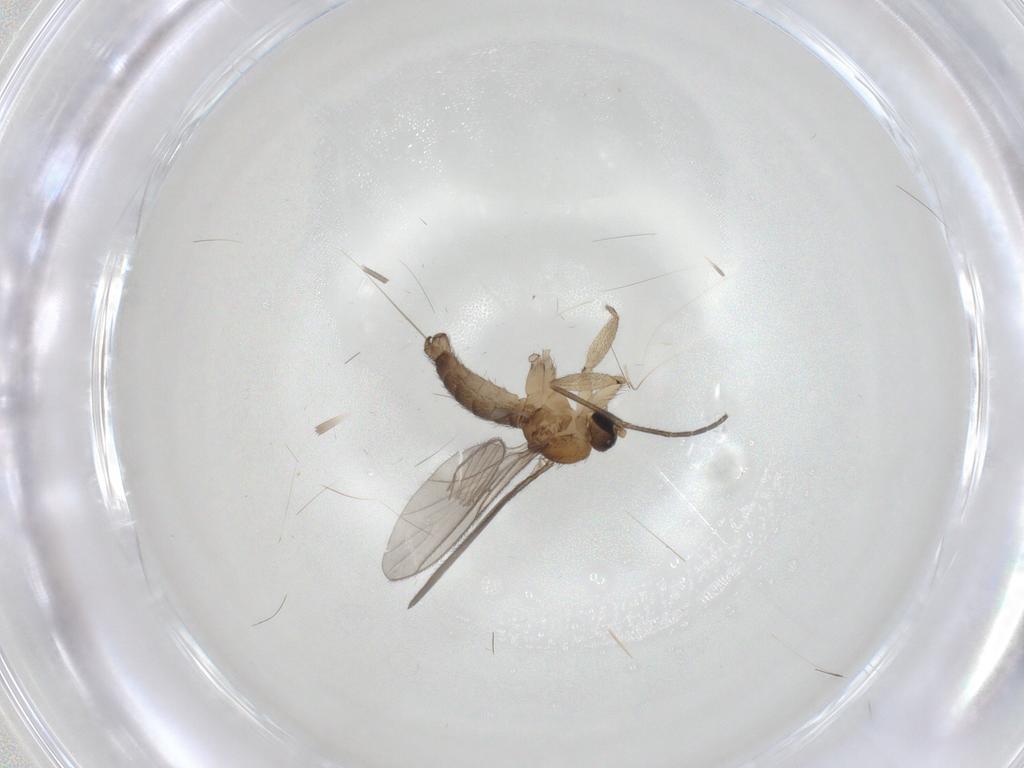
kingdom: Animalia
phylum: Arthropoda
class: Insecta
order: Diptera
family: Sciaridae
